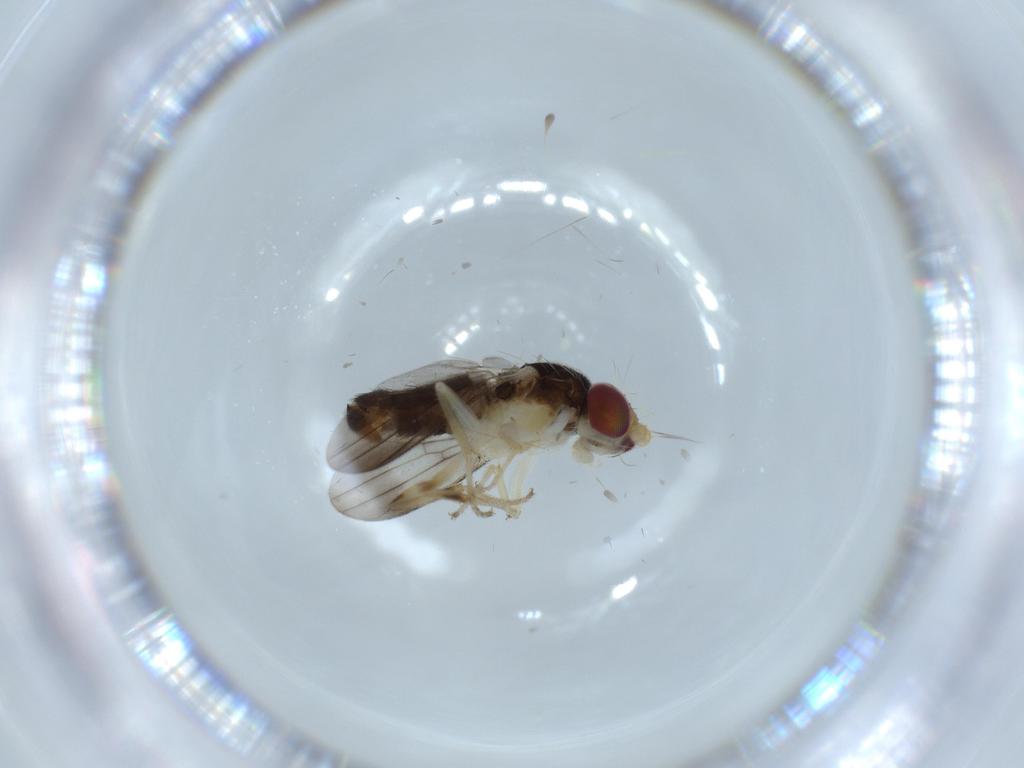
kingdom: Animalia
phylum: Arthropoda
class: Insecta
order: Diptera
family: Clusiidae
